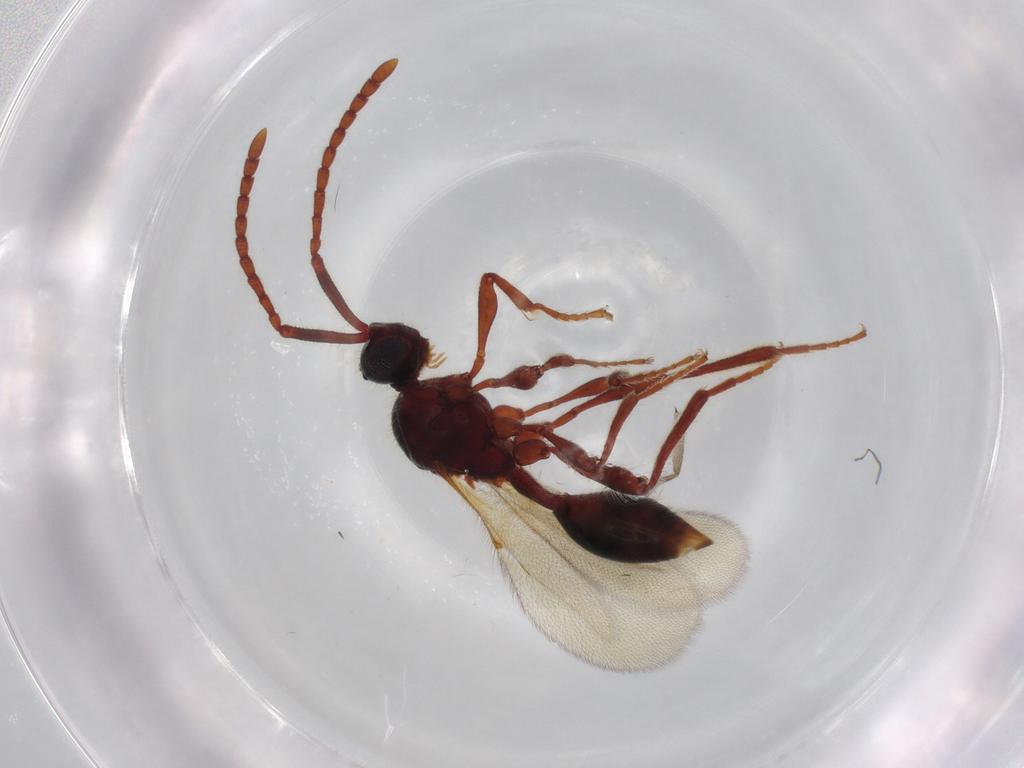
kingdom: Animalia
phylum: Arthropoda
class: Insecta
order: Hymenoptera
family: Diapriidae
